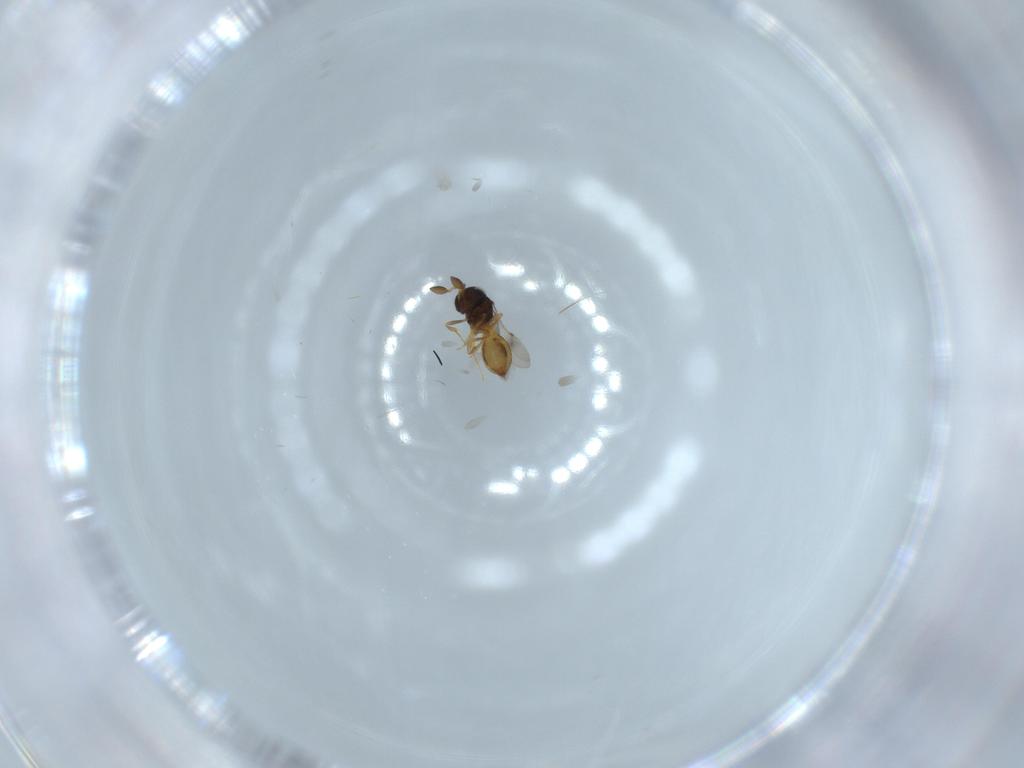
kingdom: Animalia
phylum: Arthropoda
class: Insecta
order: Hymenoptera
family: Scelionidae
